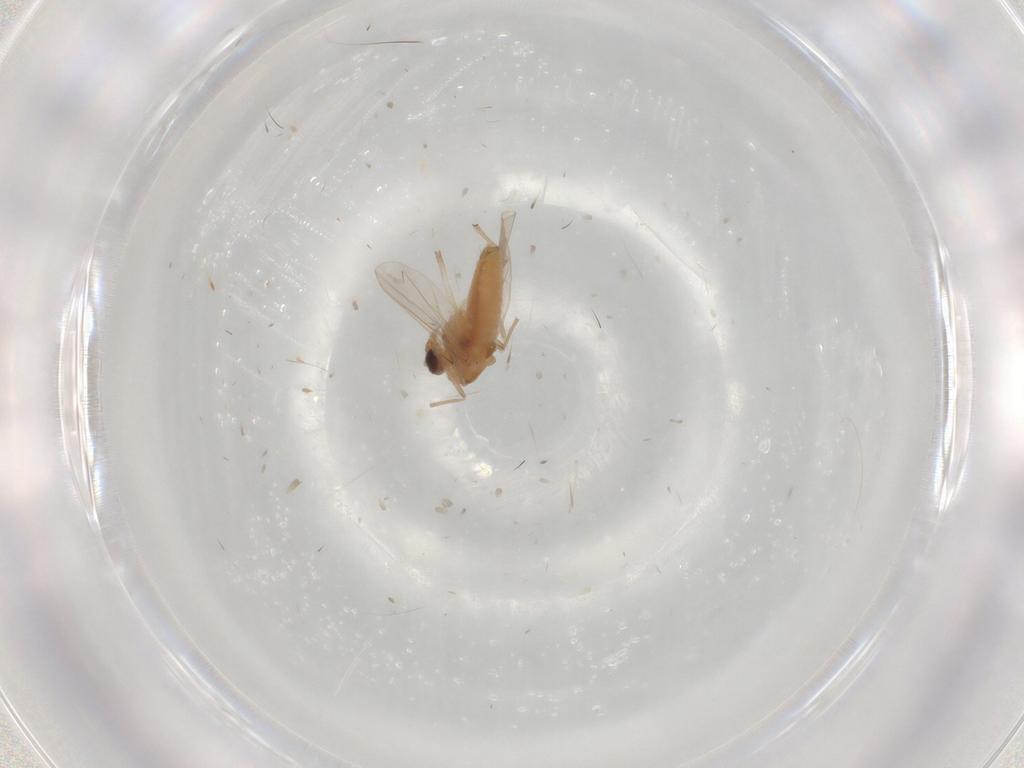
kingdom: Animalia
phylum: Arthropoda
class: Insecta
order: Diptera
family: Chironomidae
